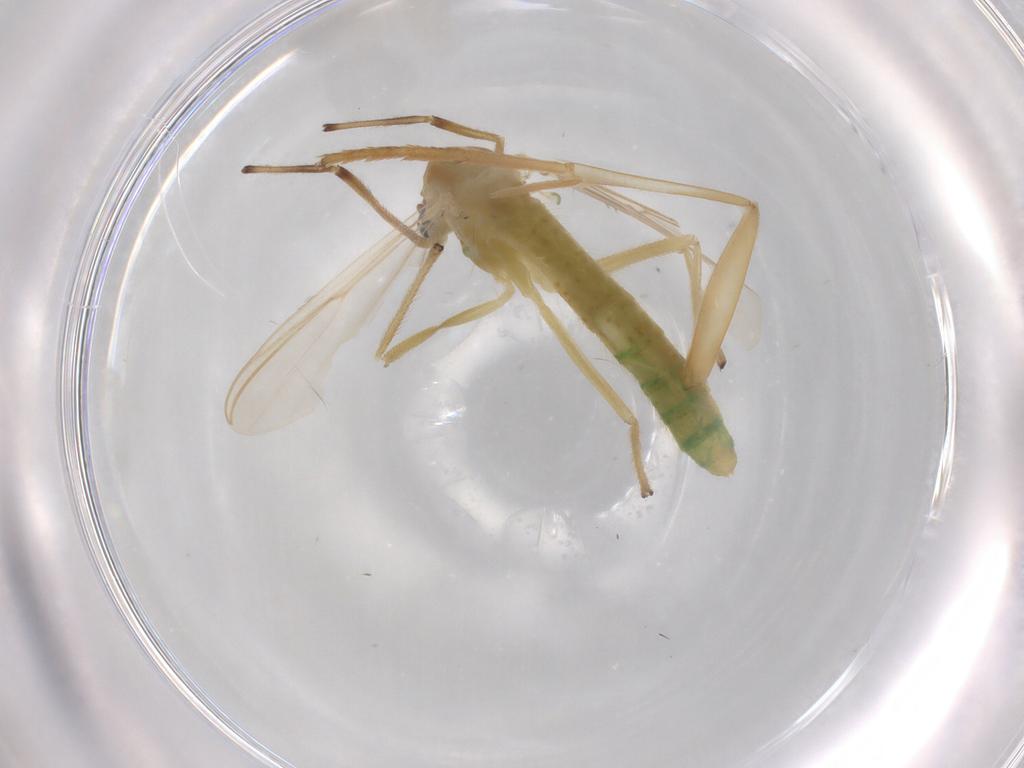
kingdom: Animalia
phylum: Arthropoda
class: Insecta
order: Diptera
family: Chironomidae
